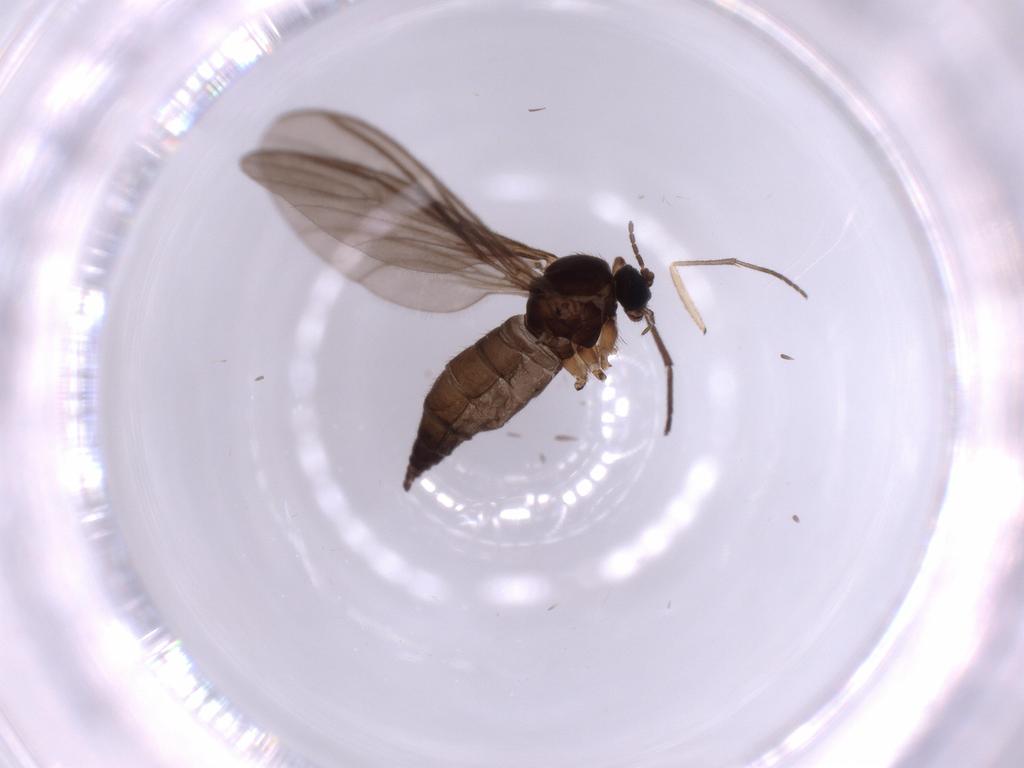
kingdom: Animalia
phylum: Arthropoda
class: Insecta
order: Diptera
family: Sciaridae
